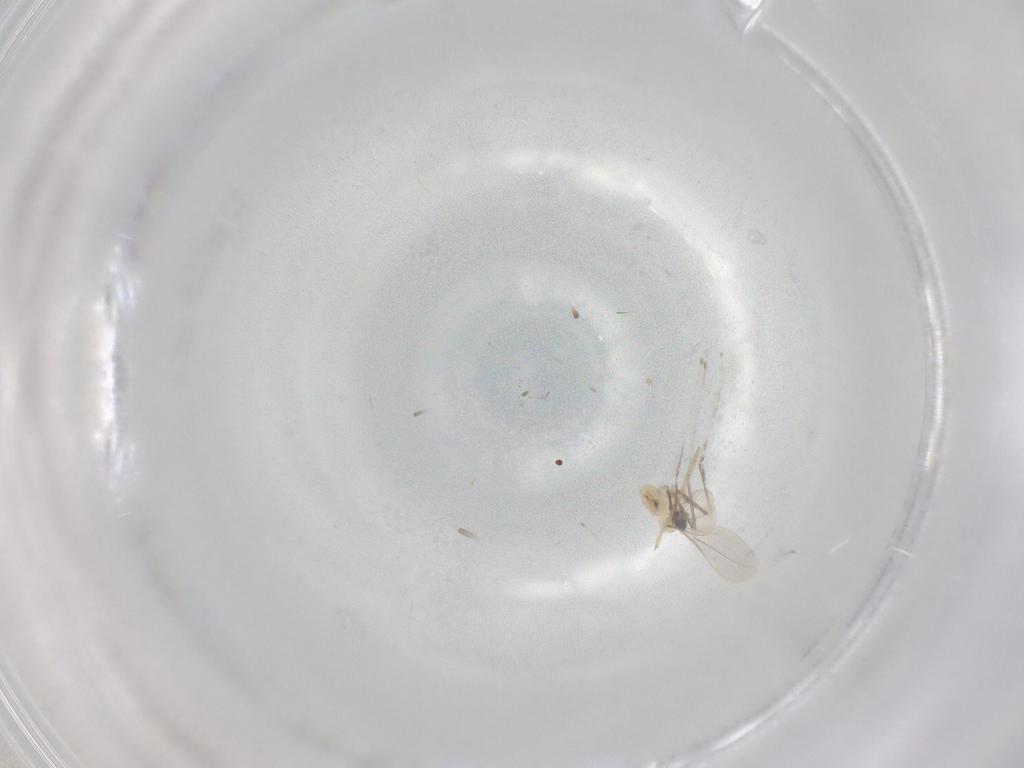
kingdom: Animalia
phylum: Arthropoda
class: Insecta
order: Diptera
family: Cecidomyiidae
